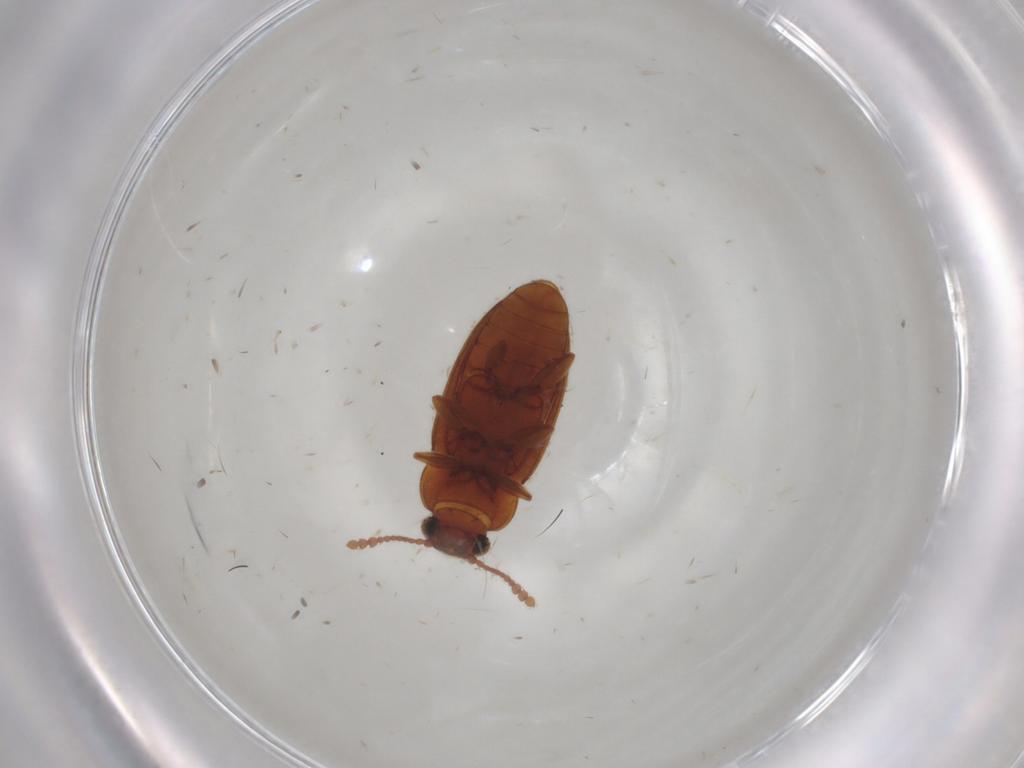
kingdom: Animalia
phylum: Arthropoda
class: Insecta
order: Coleoptera
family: Erotylidae
